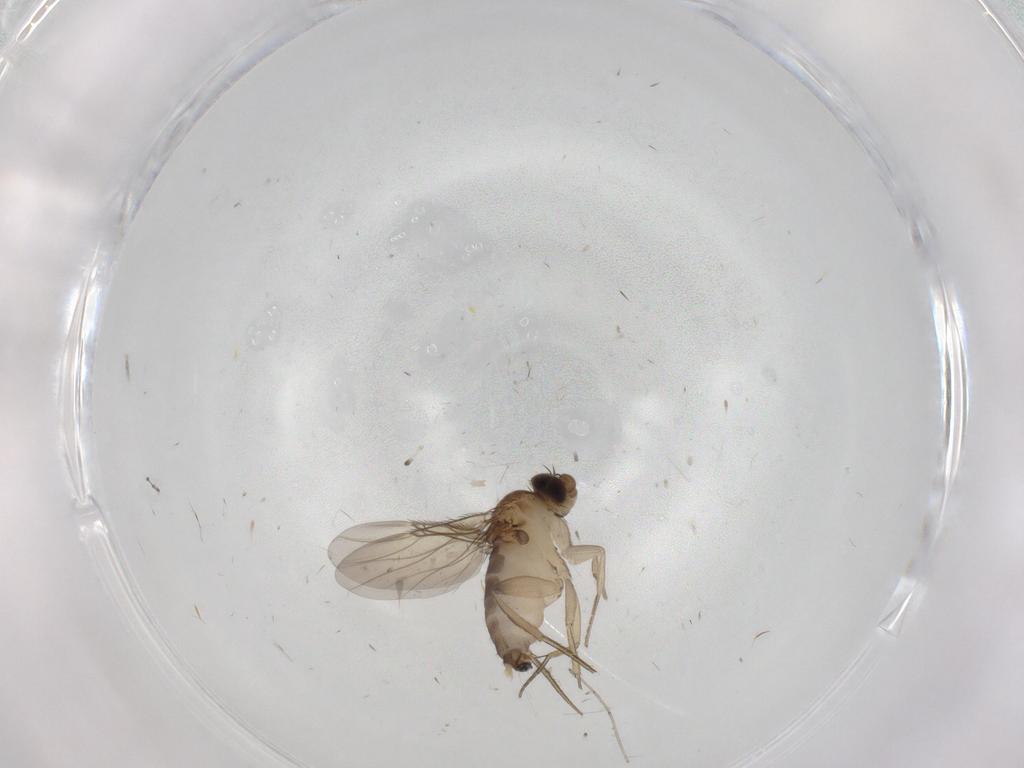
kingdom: Animalia
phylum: Arthropoda
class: Insecta
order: Diptera
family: Phoridae
